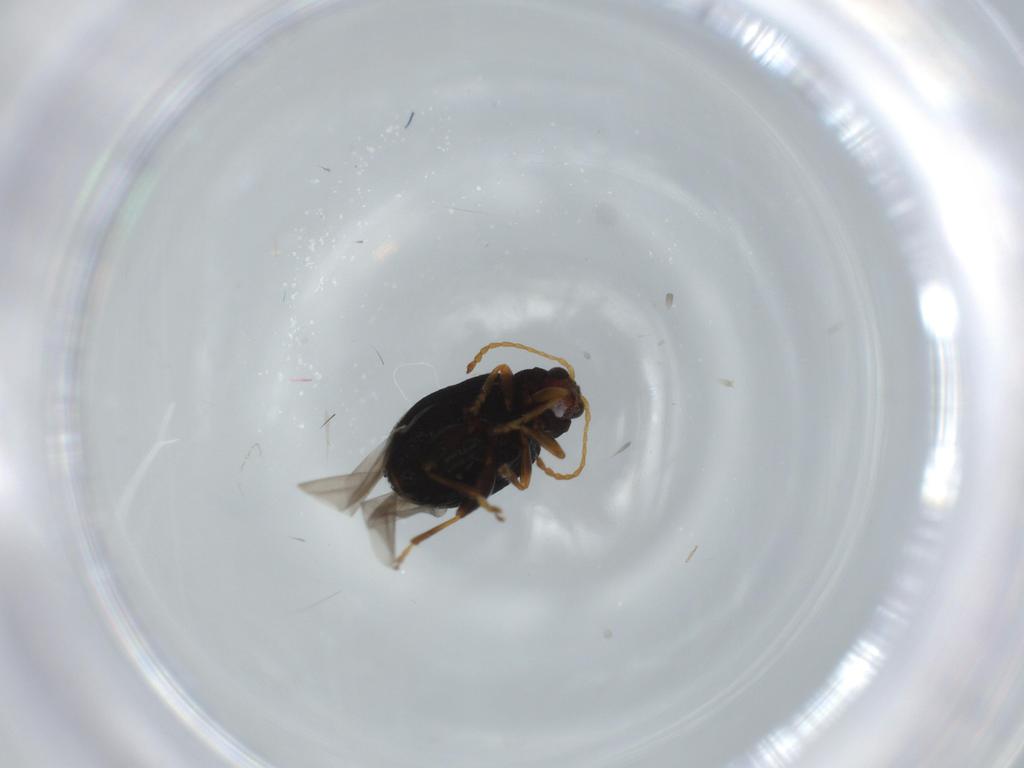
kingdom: Animalia
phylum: Arthropoda
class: Insecta
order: Coleoptera
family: Chrysomelidae
